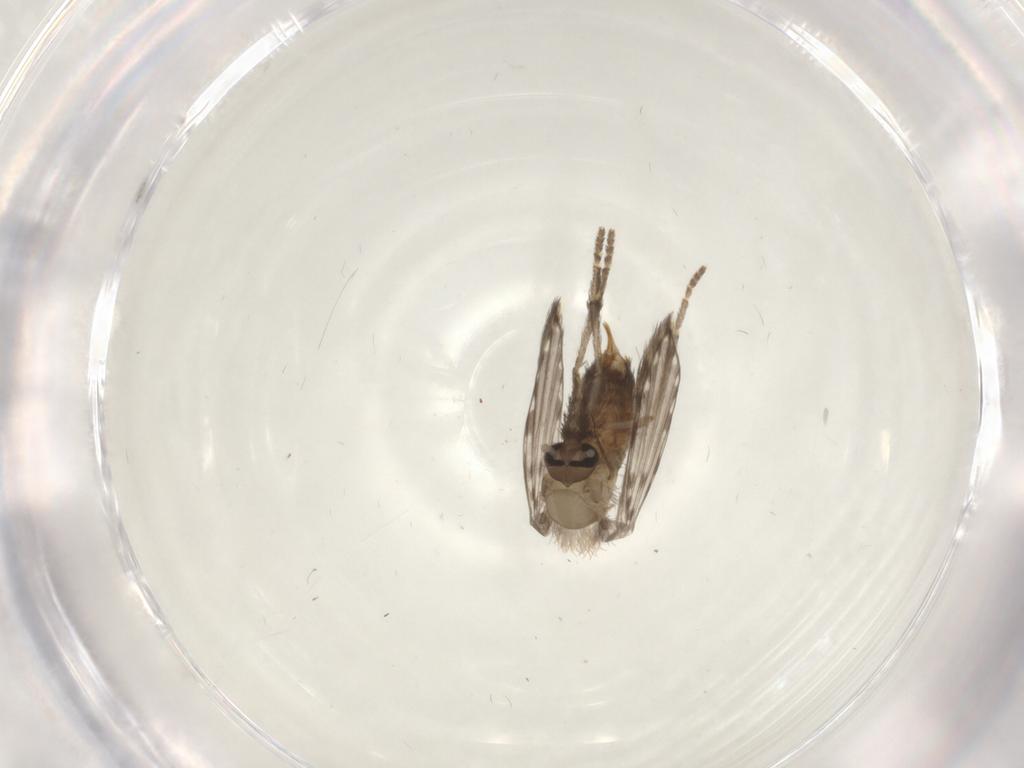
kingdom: Animalia
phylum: Arthropoda
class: Insecta
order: Diptera
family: Psychodidae
